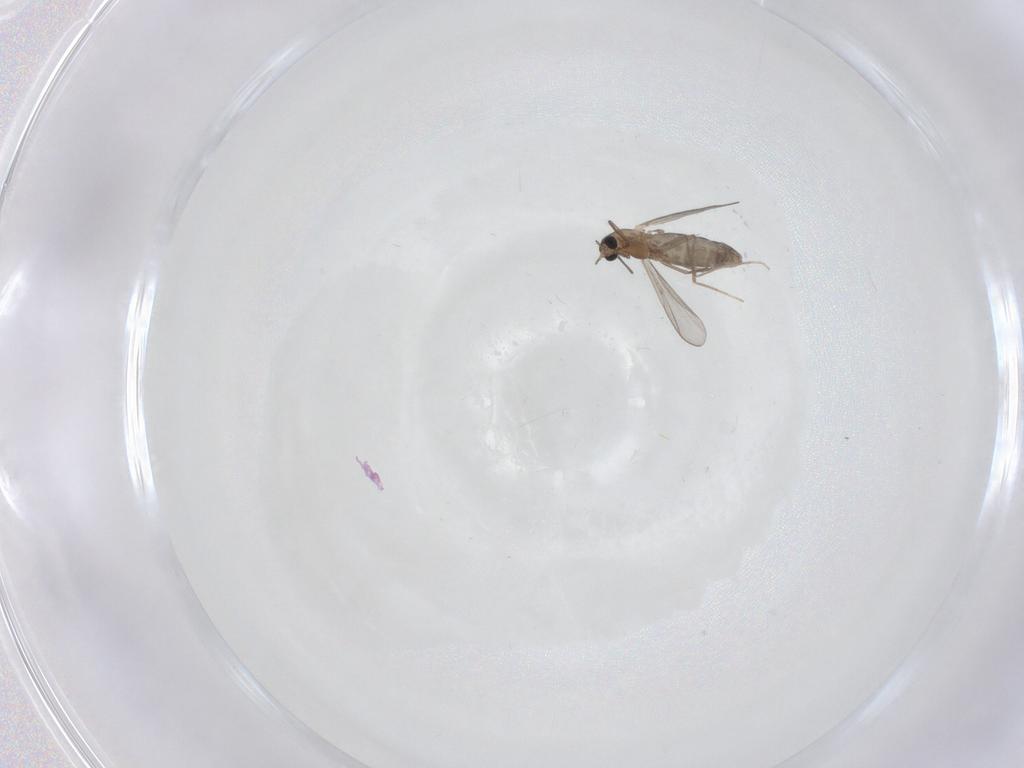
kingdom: Animalia
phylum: Arthropoda
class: Insecta
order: Diptera
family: Chironomidae
